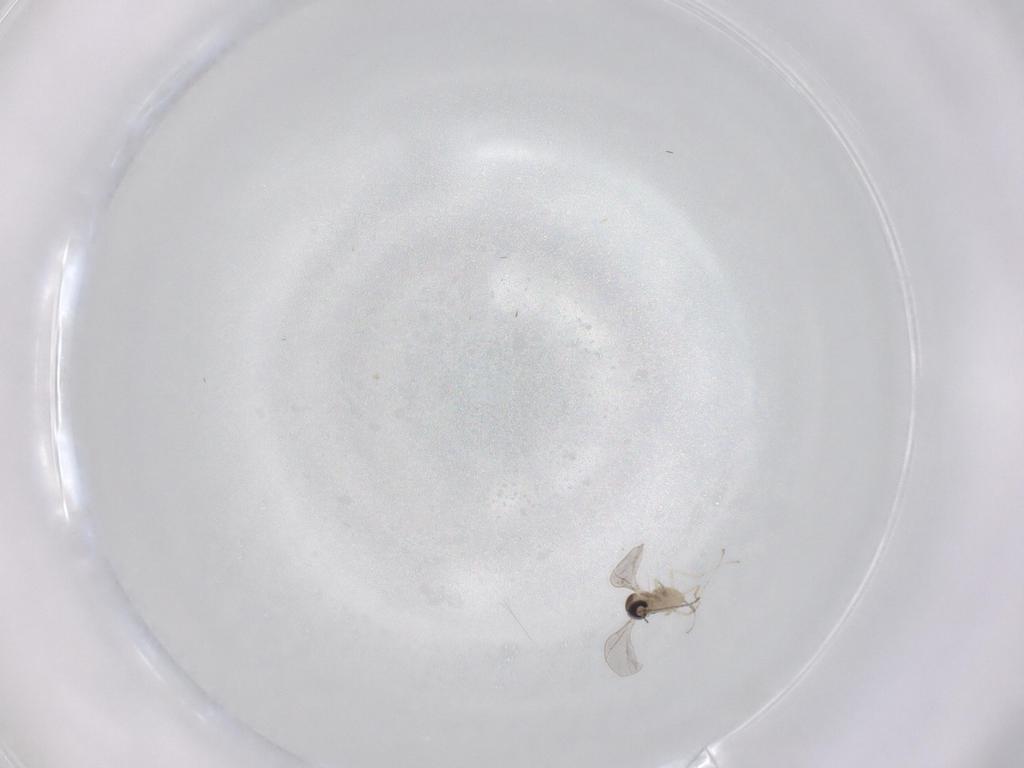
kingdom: Animalia
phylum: Arthropoda
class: Insecta
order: Diptera
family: Cecidomyiidae
